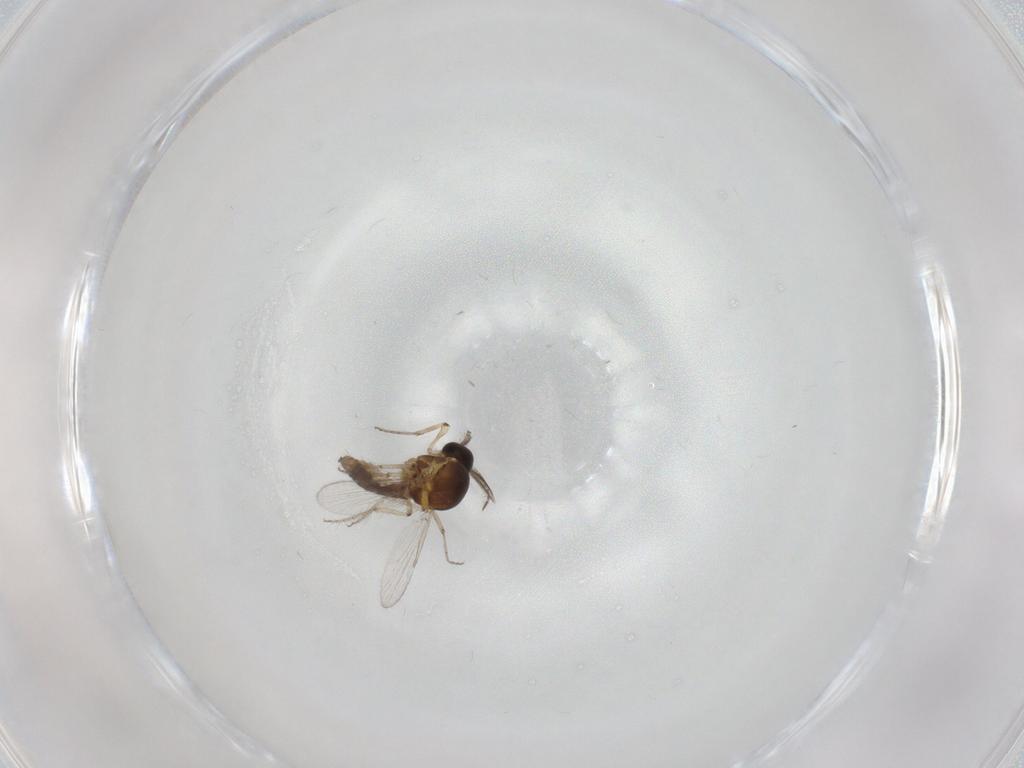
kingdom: Animalia
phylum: Arthropoda
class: Insecta
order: Diptera
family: Ceratopogonidae
